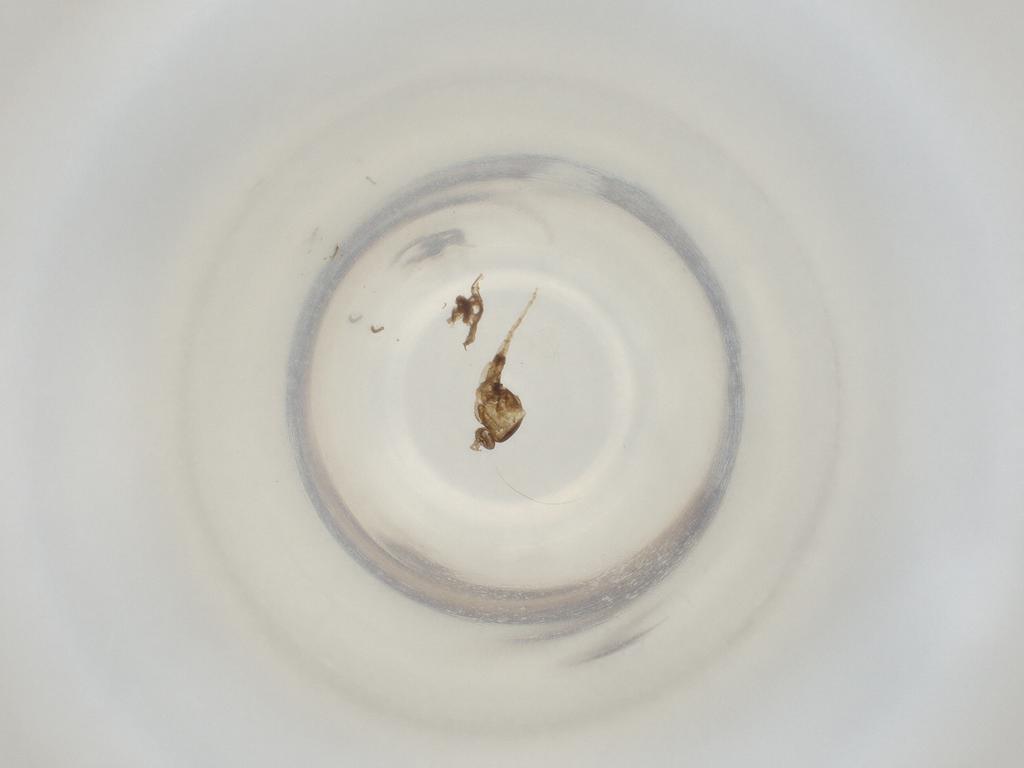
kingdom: Animalia
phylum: Arthropoda
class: Insecta
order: Diptera
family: Cecidomyiidae
